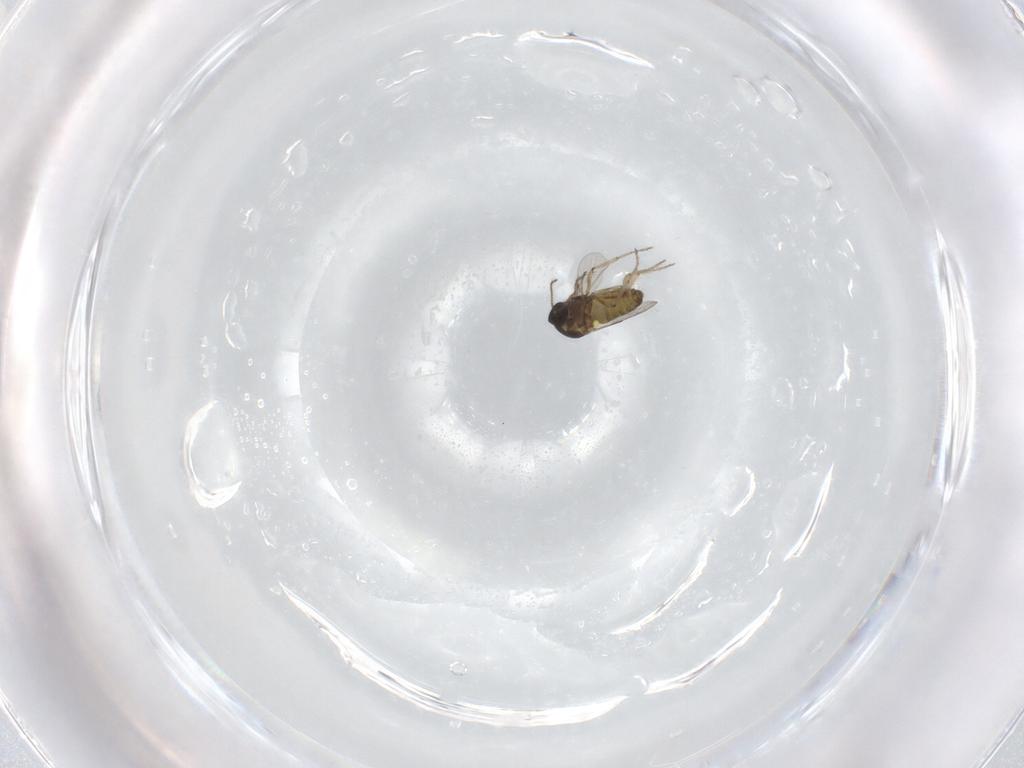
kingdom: Animalia
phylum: Arthropoda
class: Insecta
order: Diptera
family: Ceratopogonidae
